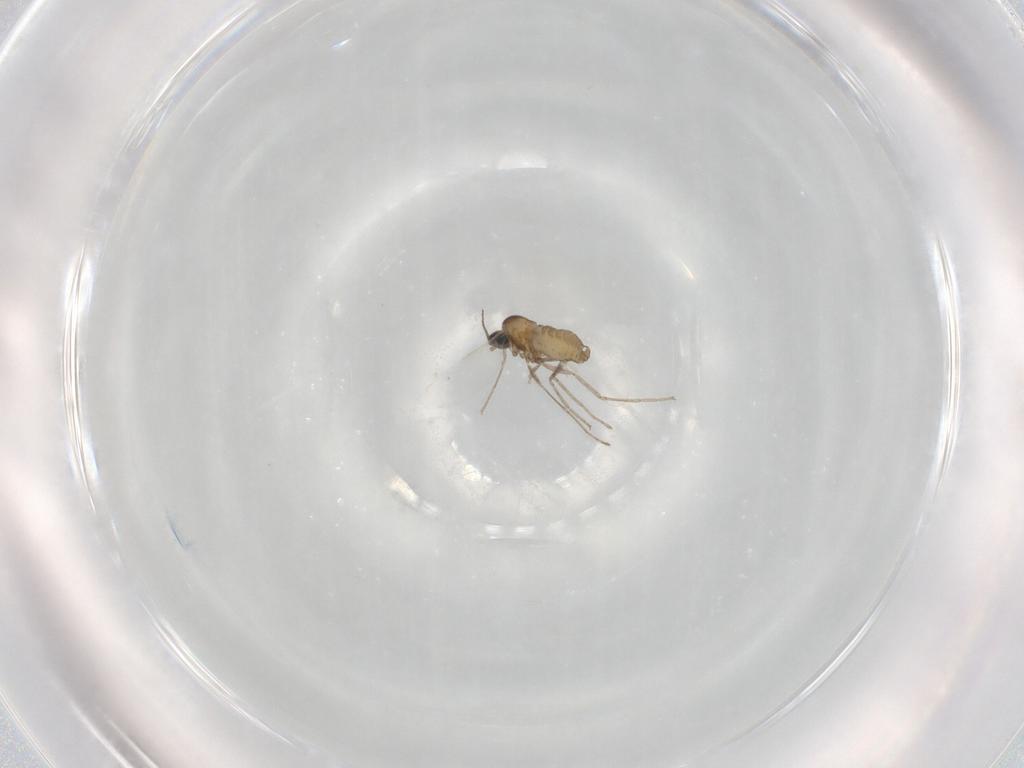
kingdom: Animalia
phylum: Arthropoda
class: Insecta
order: Diptera
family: Cecidomyiidae
